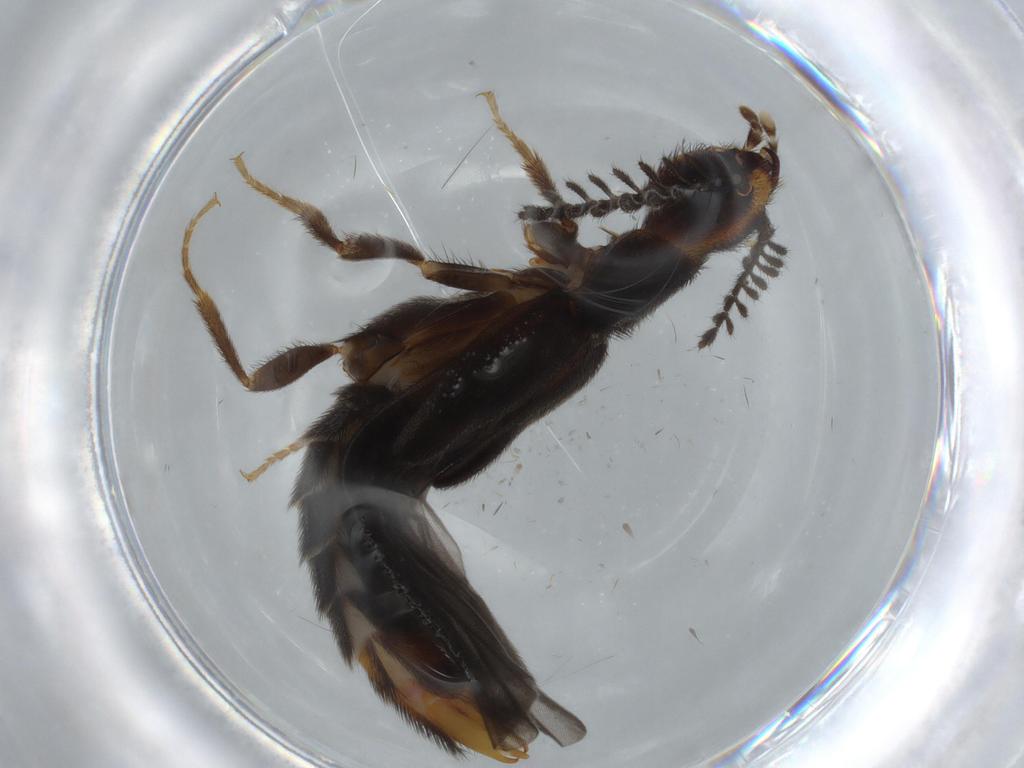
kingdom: Animalia
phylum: Arthropoda
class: Insecta
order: Coleoptera
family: Phengodidae
